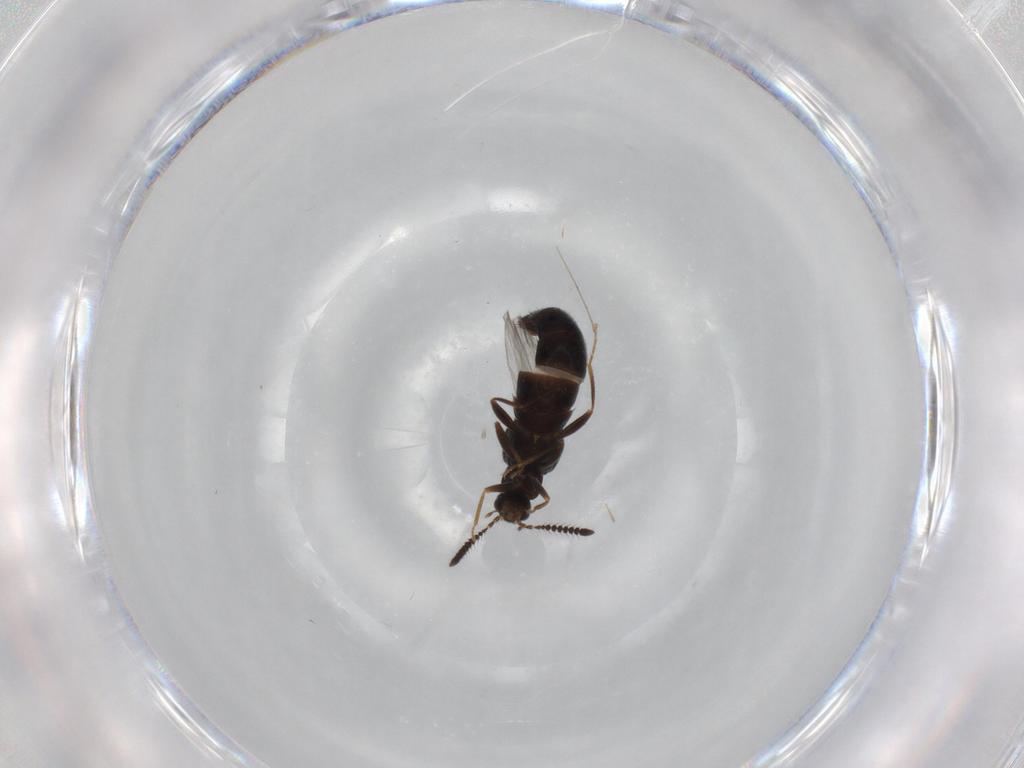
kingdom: Animalia
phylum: Arthropoda
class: Insecta
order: Coleoptera
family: Staphylinidae
